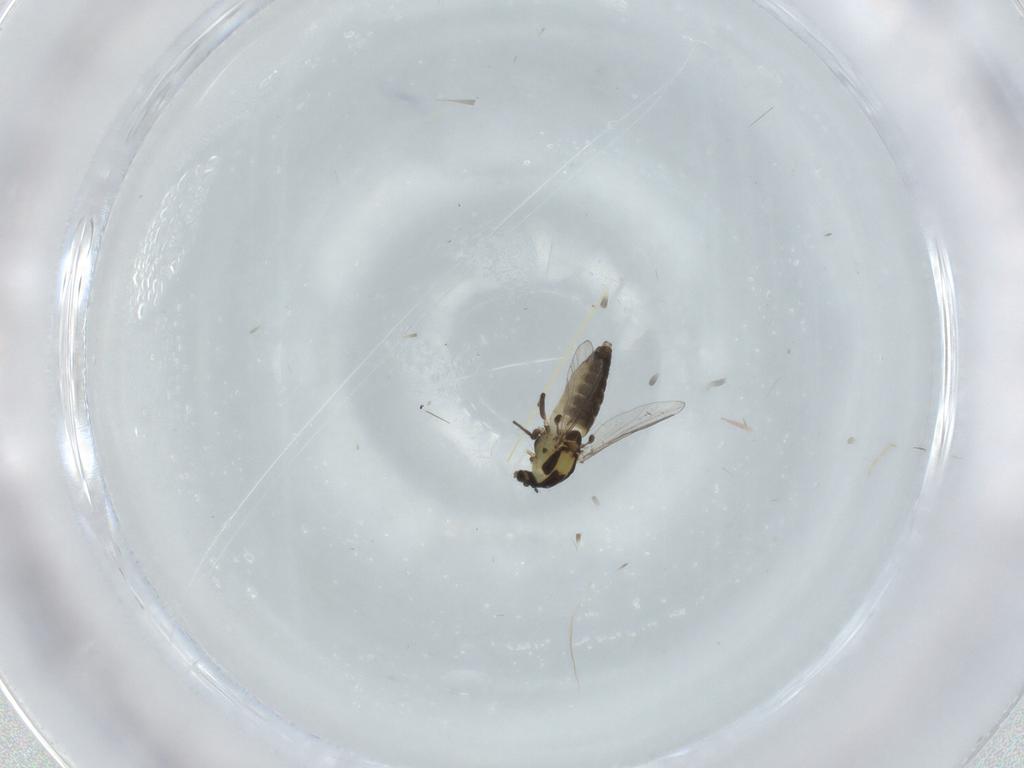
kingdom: Animalia
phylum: Arthropoda
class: Insecta
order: Diptera
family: Chironomidae
